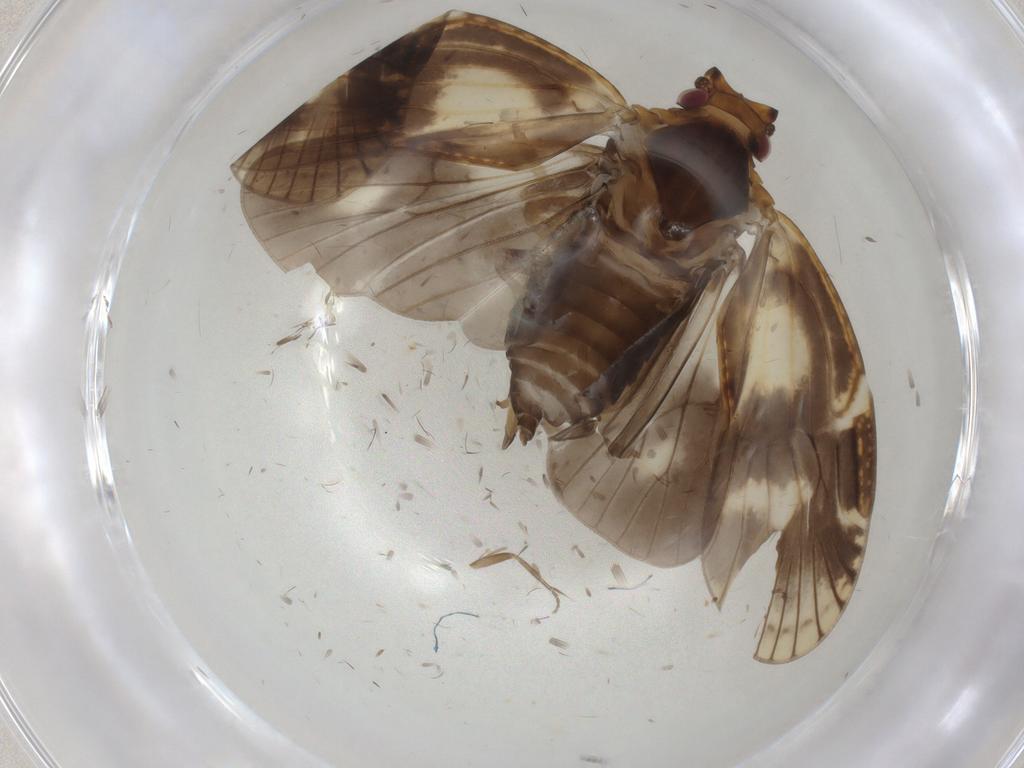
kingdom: Animalia
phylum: Arthropoda
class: Insecta
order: Hemiptera
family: Cixiidae
